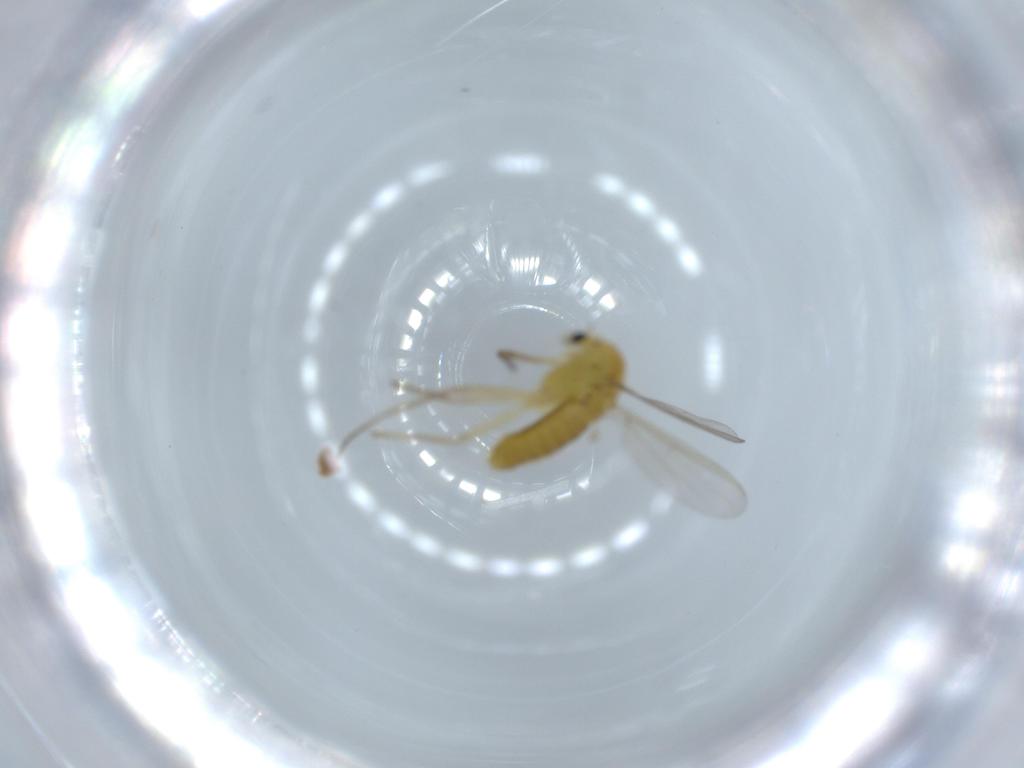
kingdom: Animalia
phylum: Arthropoda
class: Insecta
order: Diptera
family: Chironomidae
